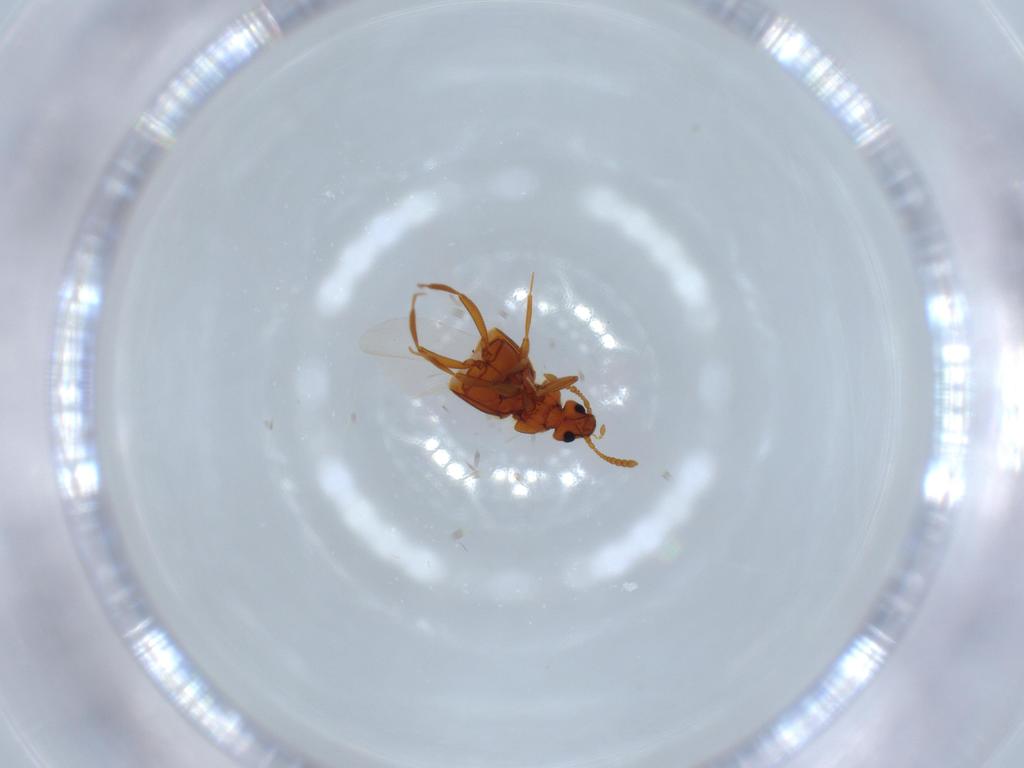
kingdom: Animalia
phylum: Arthropoda
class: Insecta
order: Coleoptera
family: Staphylinidae
